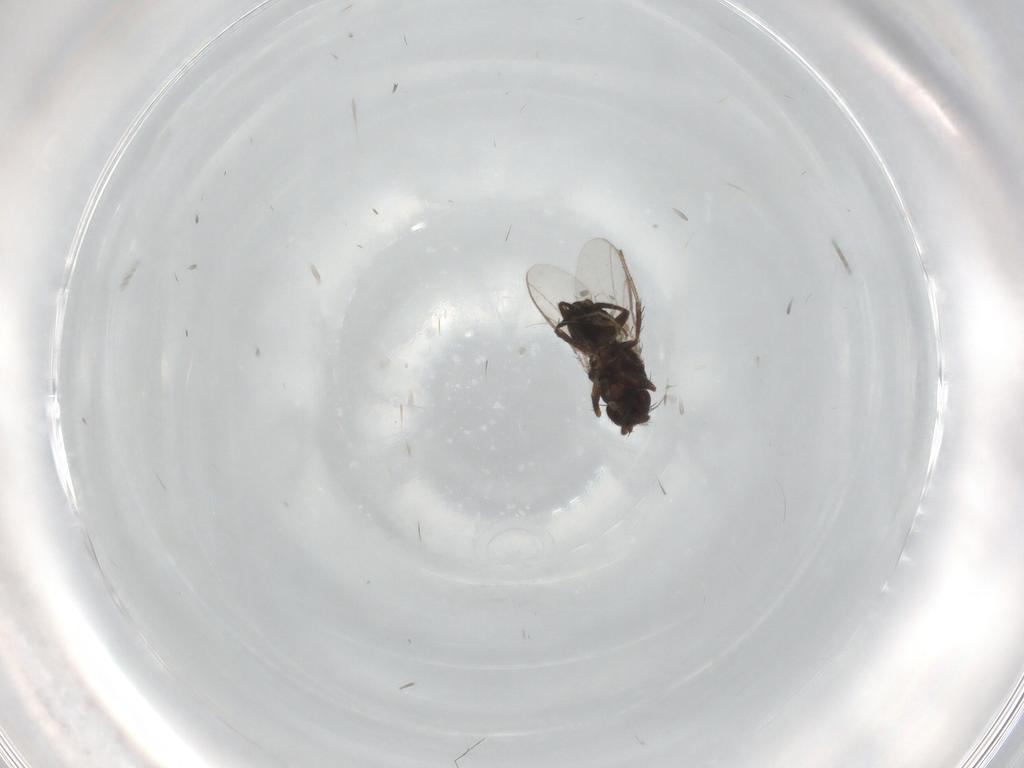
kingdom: Animalia
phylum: Arthropoda
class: Insecta
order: Diptera
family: Sphaeroceridae
